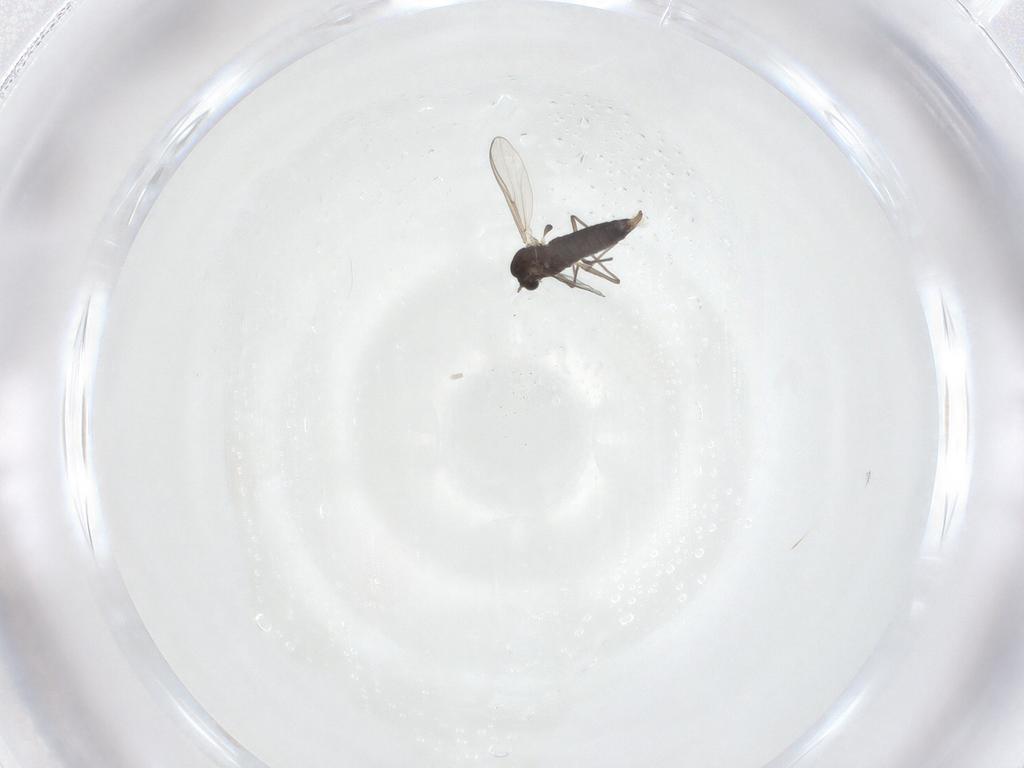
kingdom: Animalia
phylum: Arthropoda
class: Insecta
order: Diptera
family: Chironomidae
